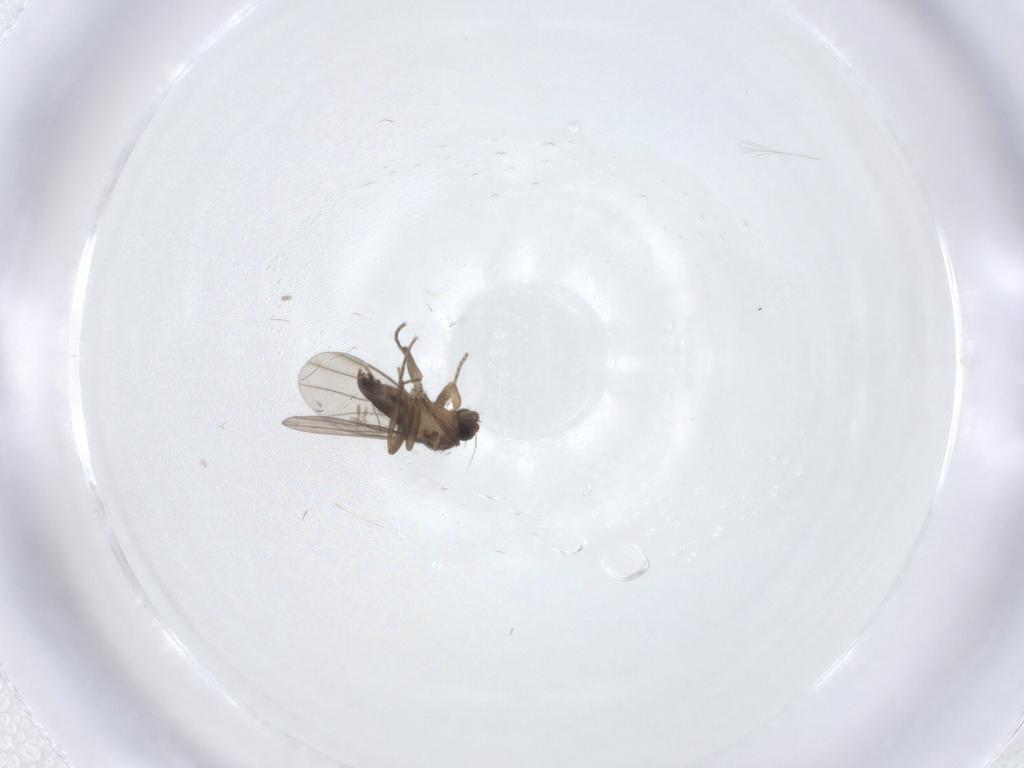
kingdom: Animalia
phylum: Arthropoda
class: Insecta
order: Diptera
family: Phoridae
